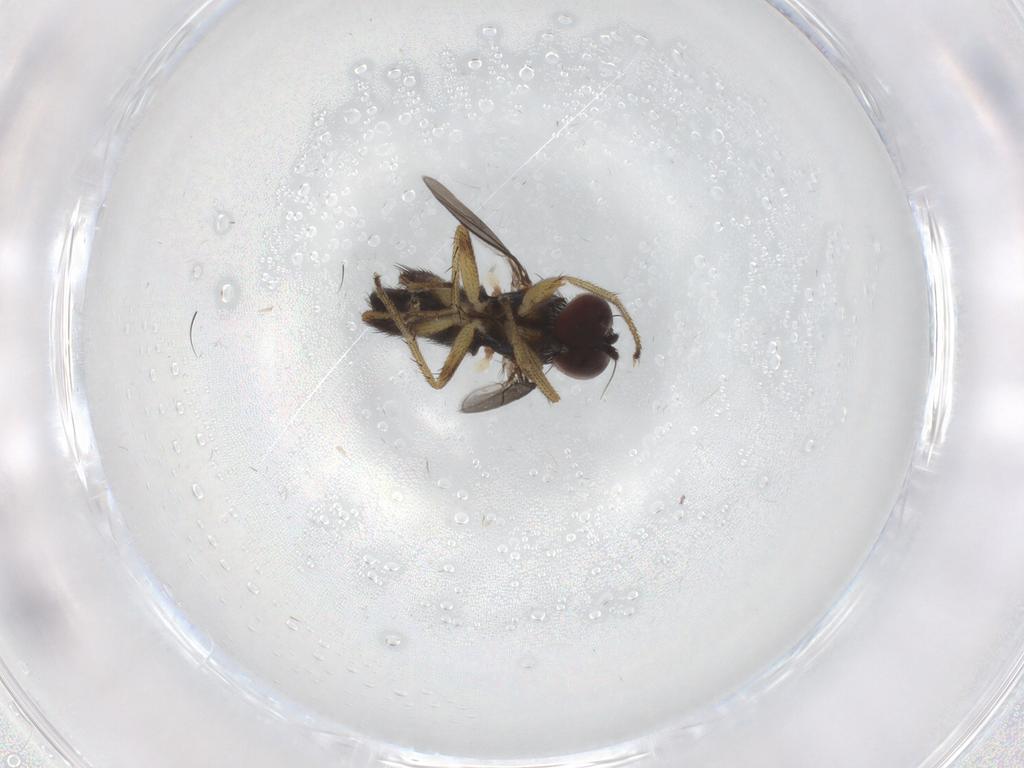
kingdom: Animalia
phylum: Arthropoda
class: Insecta
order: Diptera
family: Dolichopodidae
